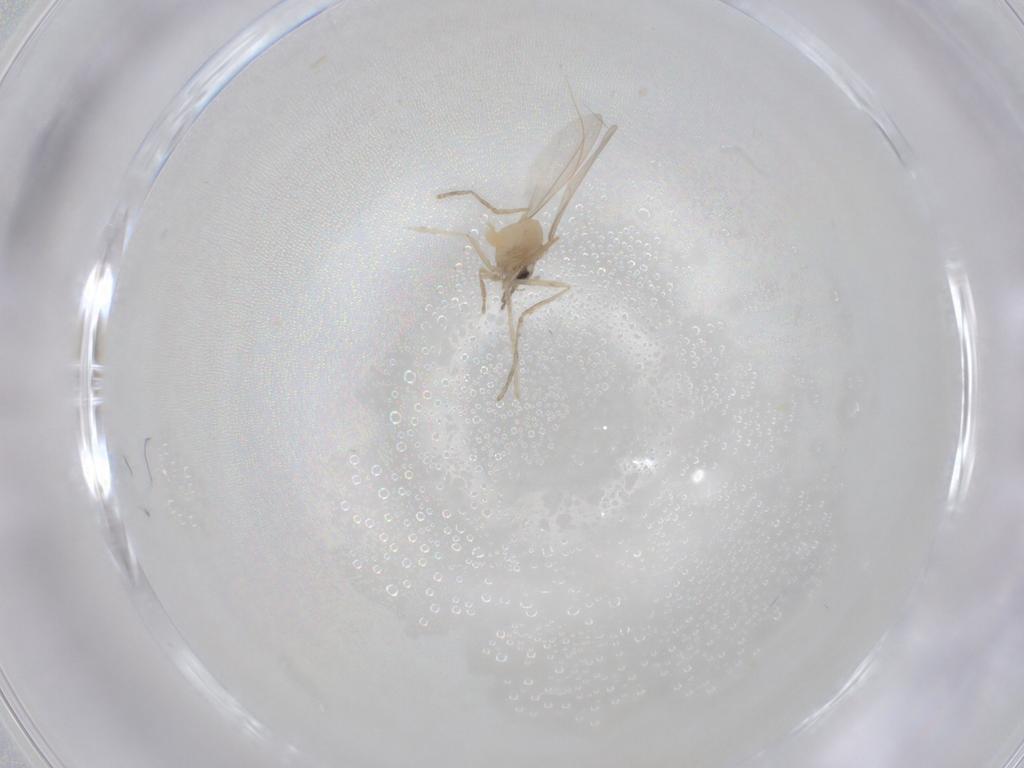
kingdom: Animalia
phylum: Arthropoda
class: Insecta
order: Diptera
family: Cecidomyiidae
